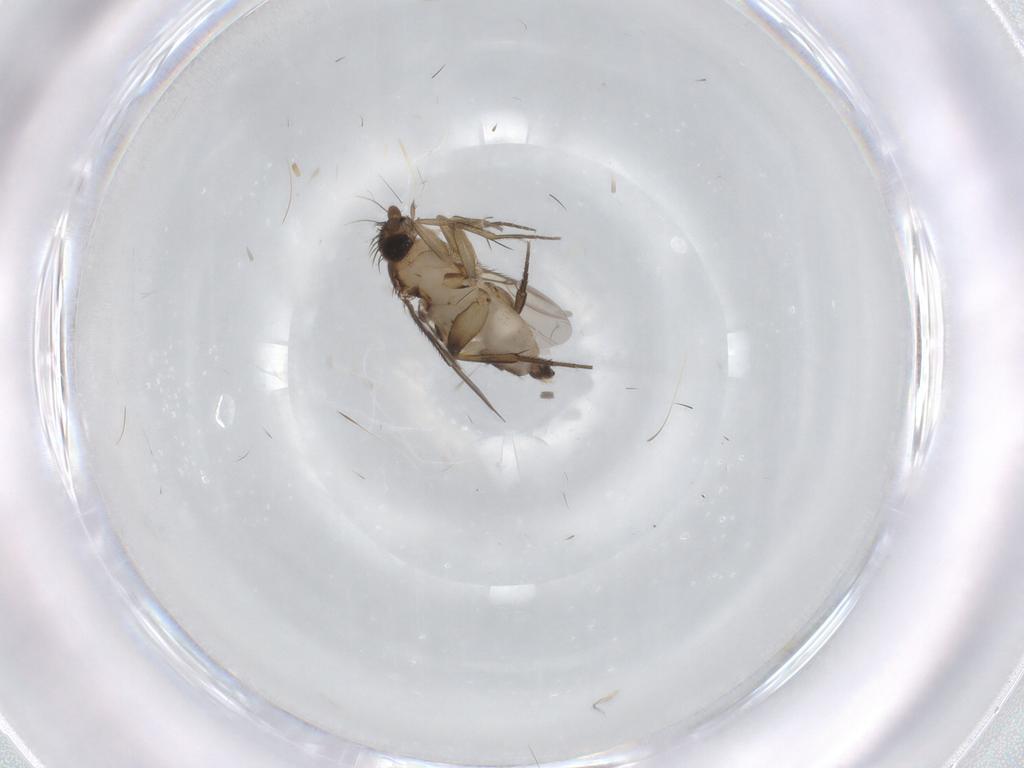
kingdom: Animalia
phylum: Arthropoda
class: Insecta
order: Diptera
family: Phoridae
